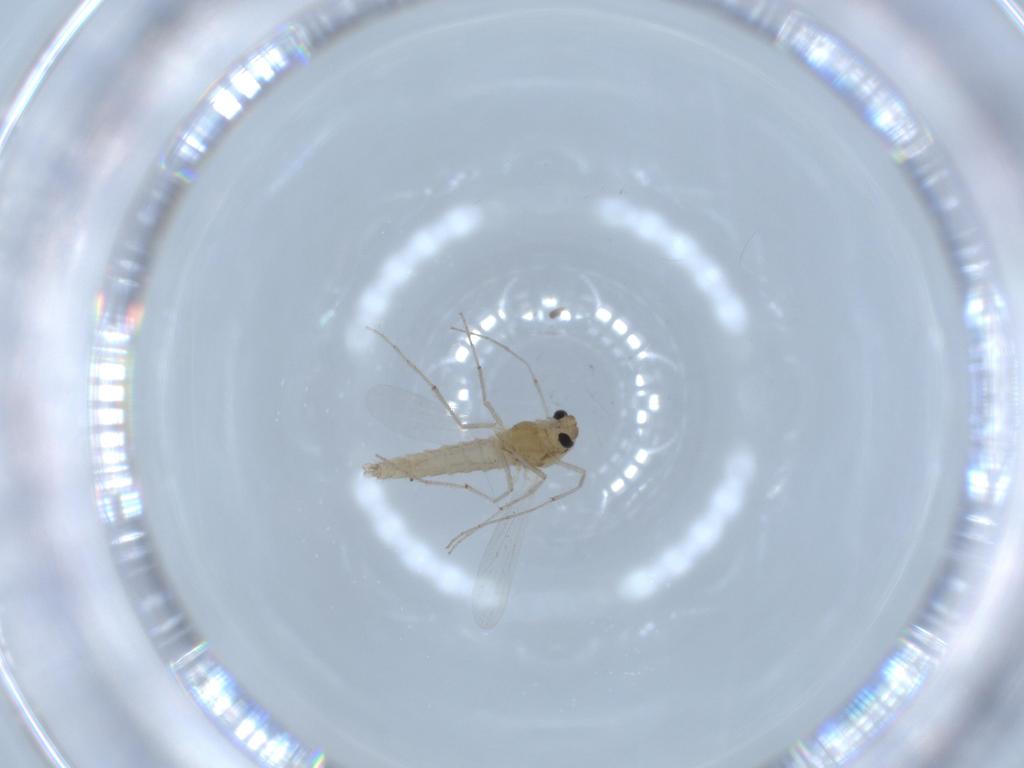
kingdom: Animalia
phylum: Arthropoda
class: Insecta
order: Diptera
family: Chironomidae
